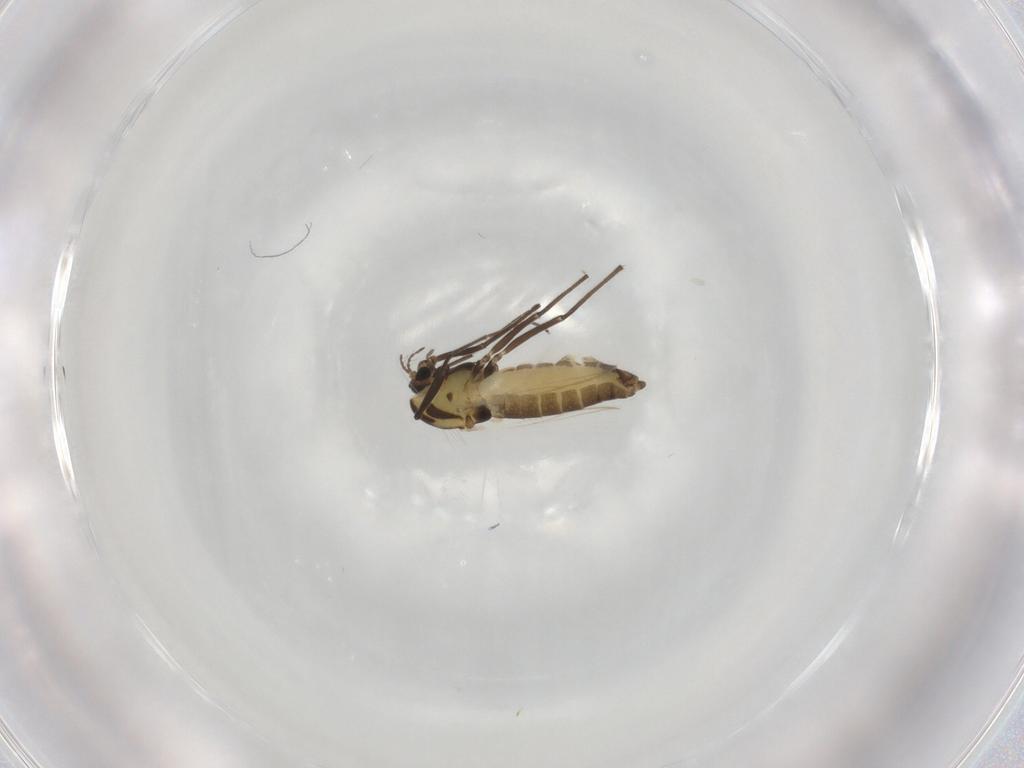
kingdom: Animalia
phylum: Arthropoda
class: Insecta
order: Diptera
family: Chironomidae
